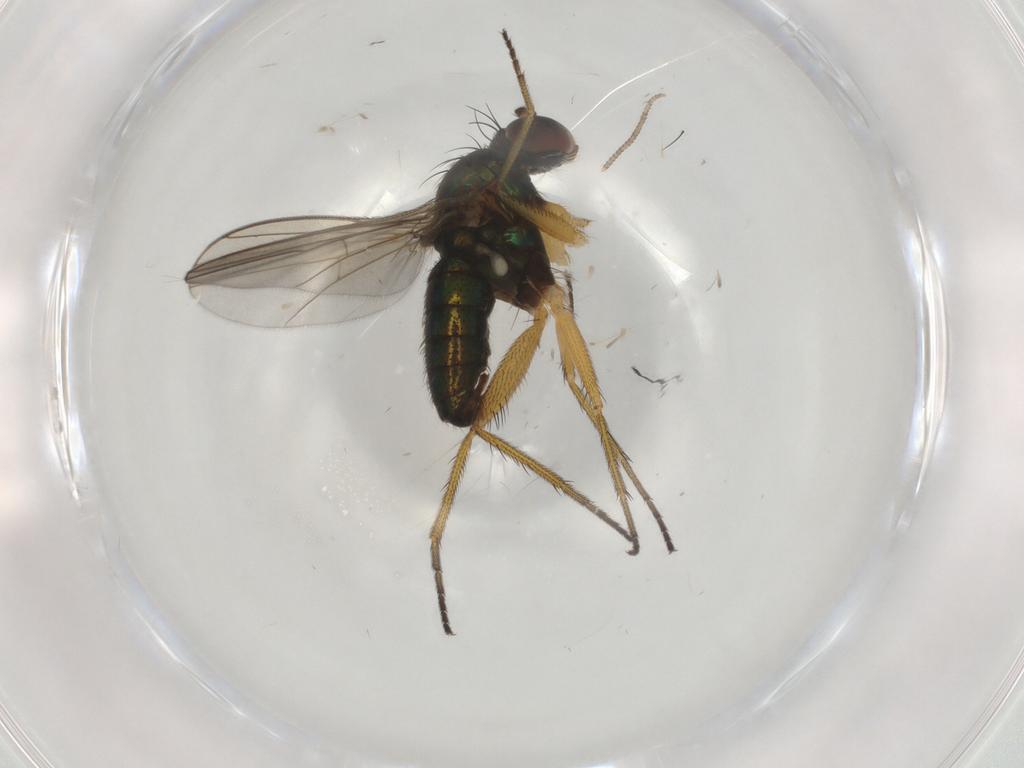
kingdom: Animalia
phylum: Arthropoda
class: Insecta
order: Diptera
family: Dolichopodidae
